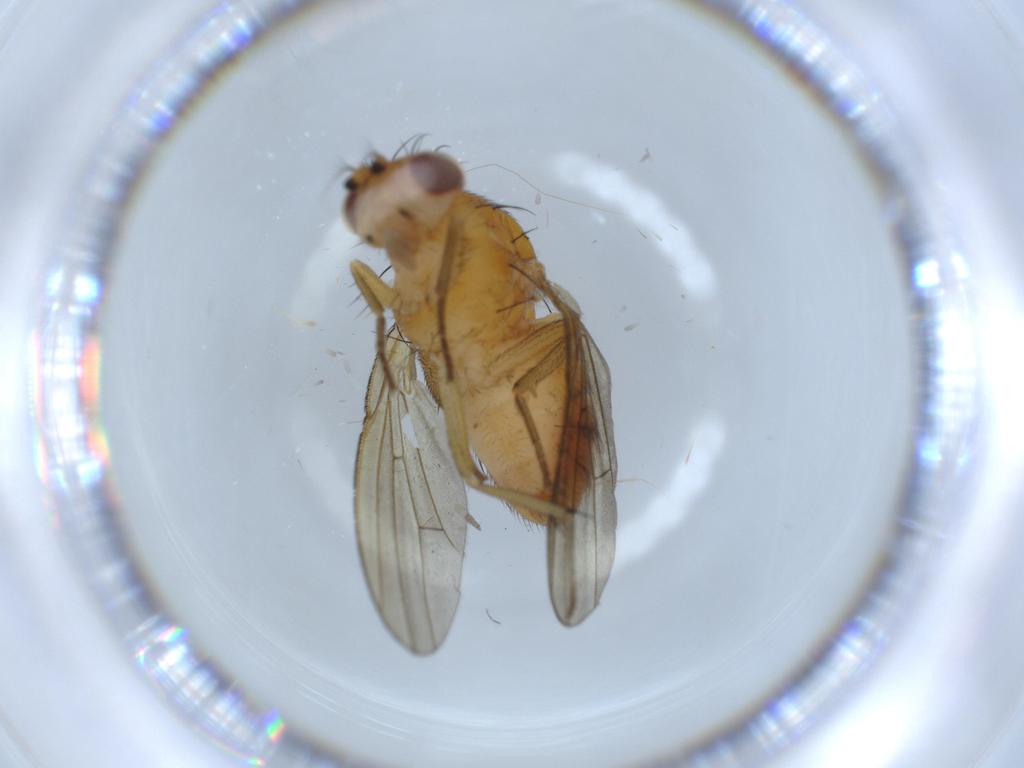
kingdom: Animalia
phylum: Arthropoda
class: Insecta
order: Diptera
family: Lauxaniidae
